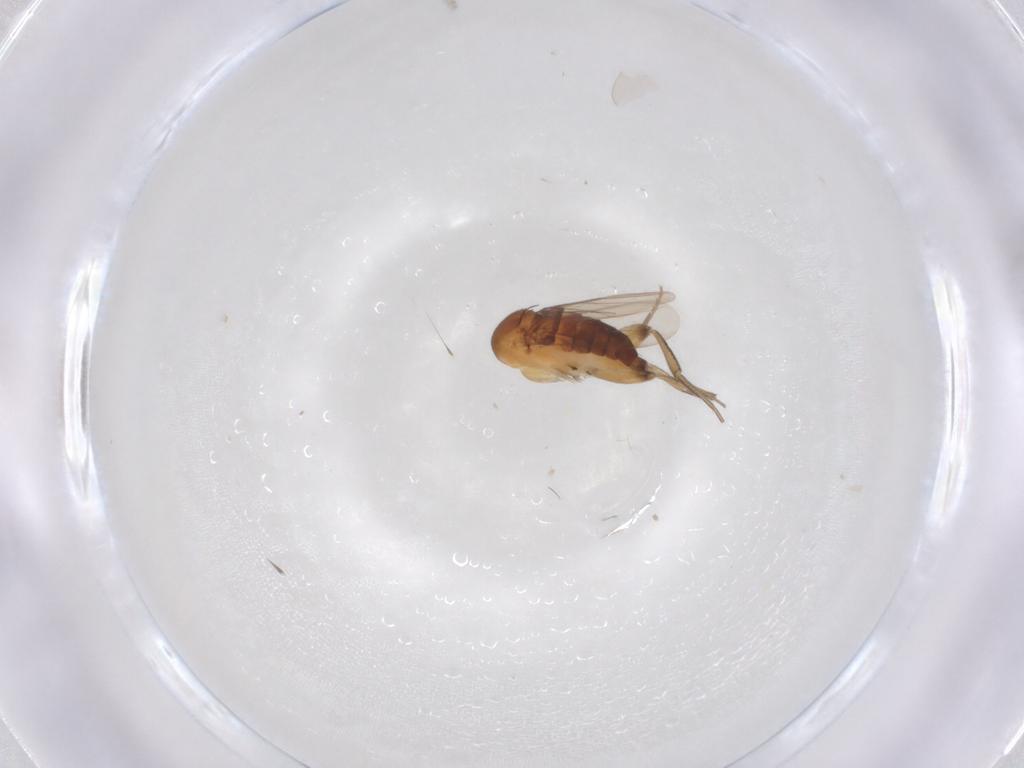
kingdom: Animalia
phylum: Arthropoda
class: Insecta
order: Diptera
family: Phoridae
